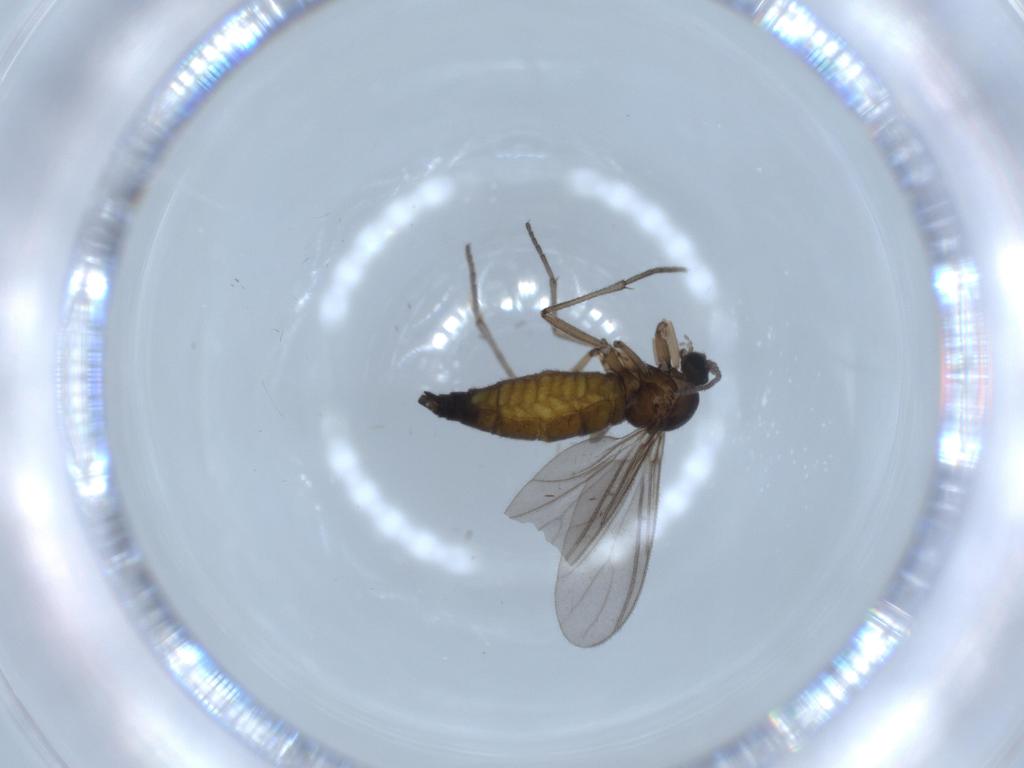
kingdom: Animalia
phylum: Arthropoda
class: Insecta
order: Diptera
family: Sciaridae
